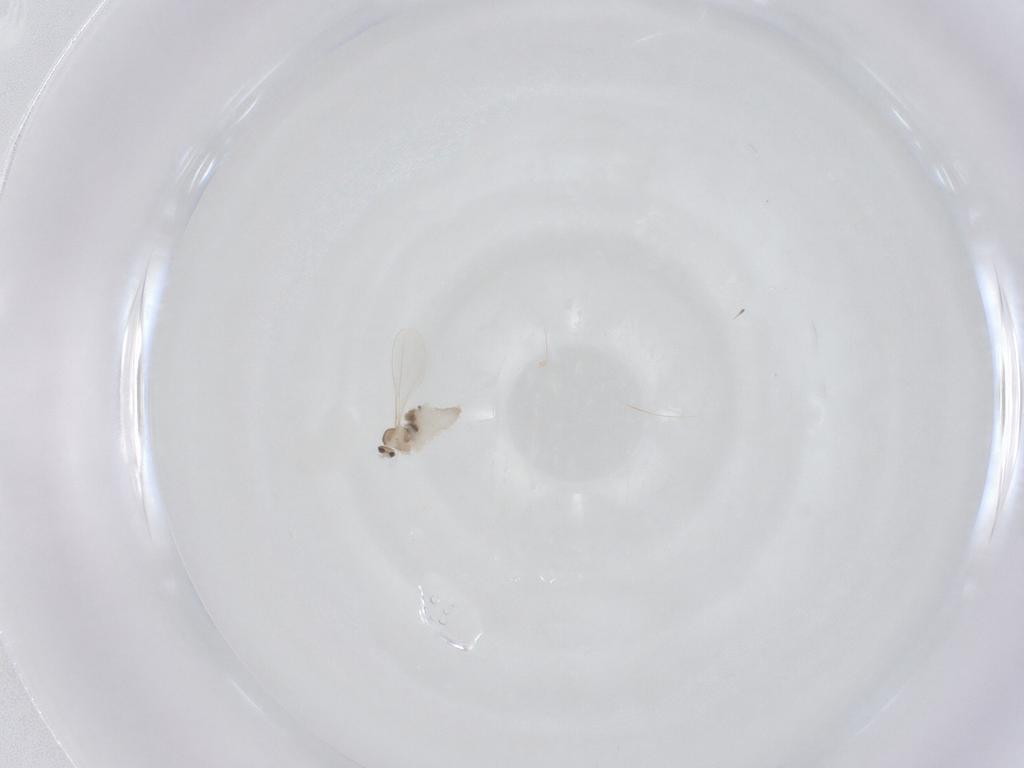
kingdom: Animalia
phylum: Arthropoda
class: Insecta
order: Diptera
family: Cecidomyiidae
